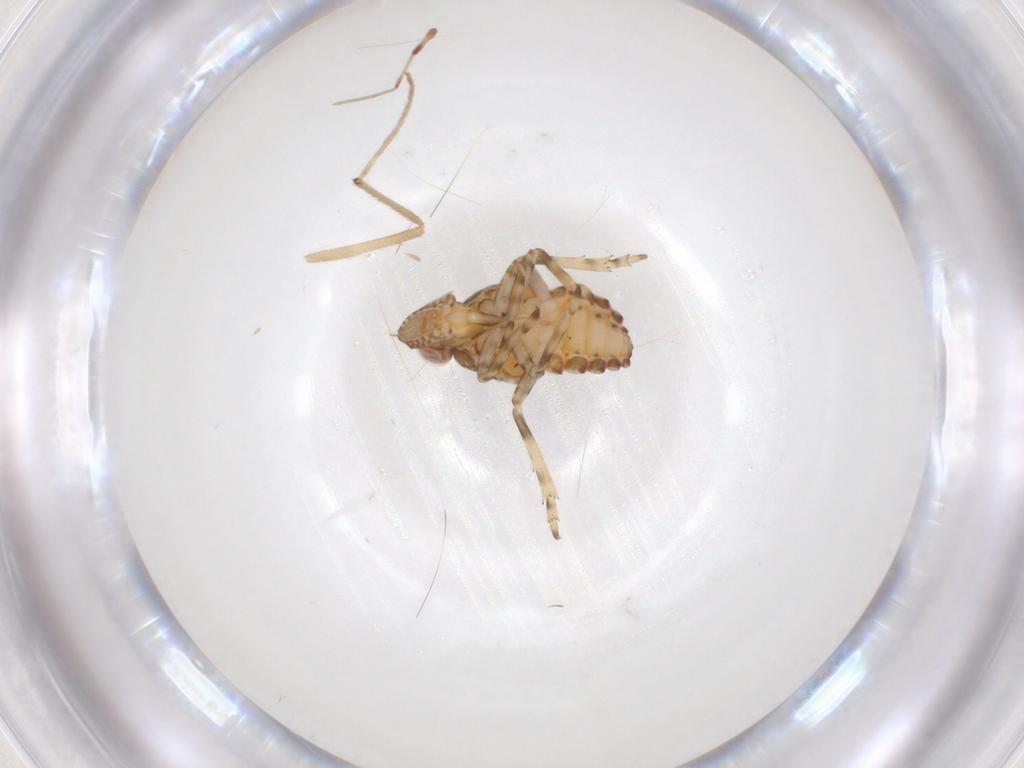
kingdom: Animalia
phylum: Arthropoda
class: Insecta
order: Hemiptera
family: Tropiduchidae
